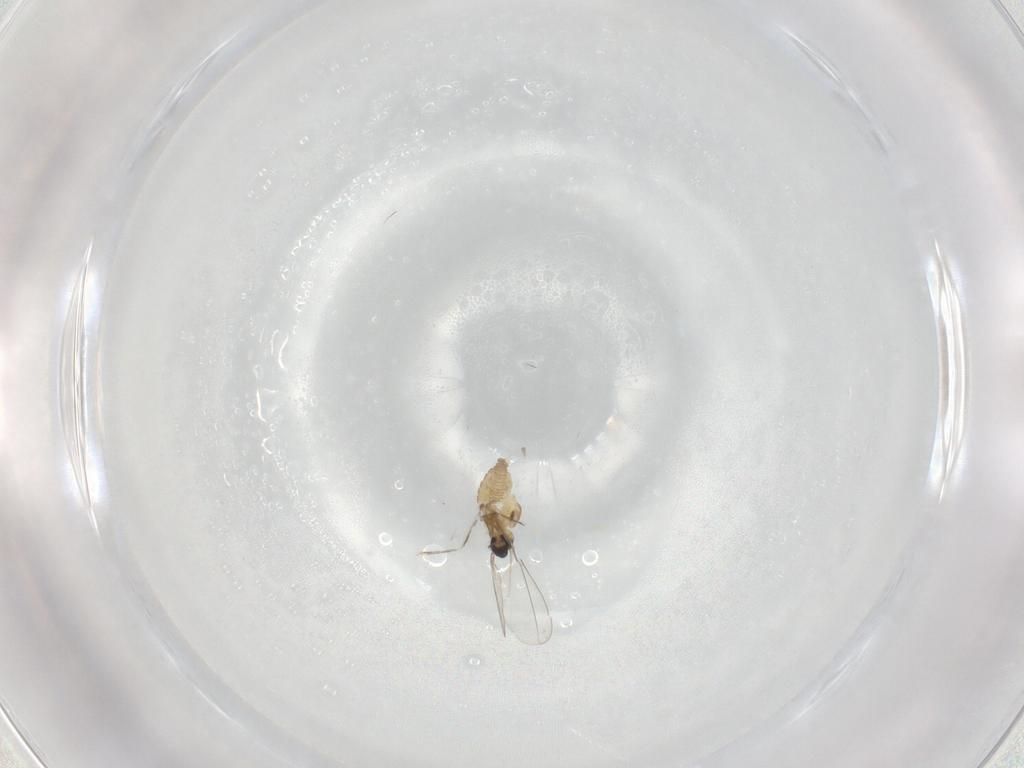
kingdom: Animalia
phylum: Arthropoda
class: Insecta
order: Diptera
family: Cecidomyiidae
